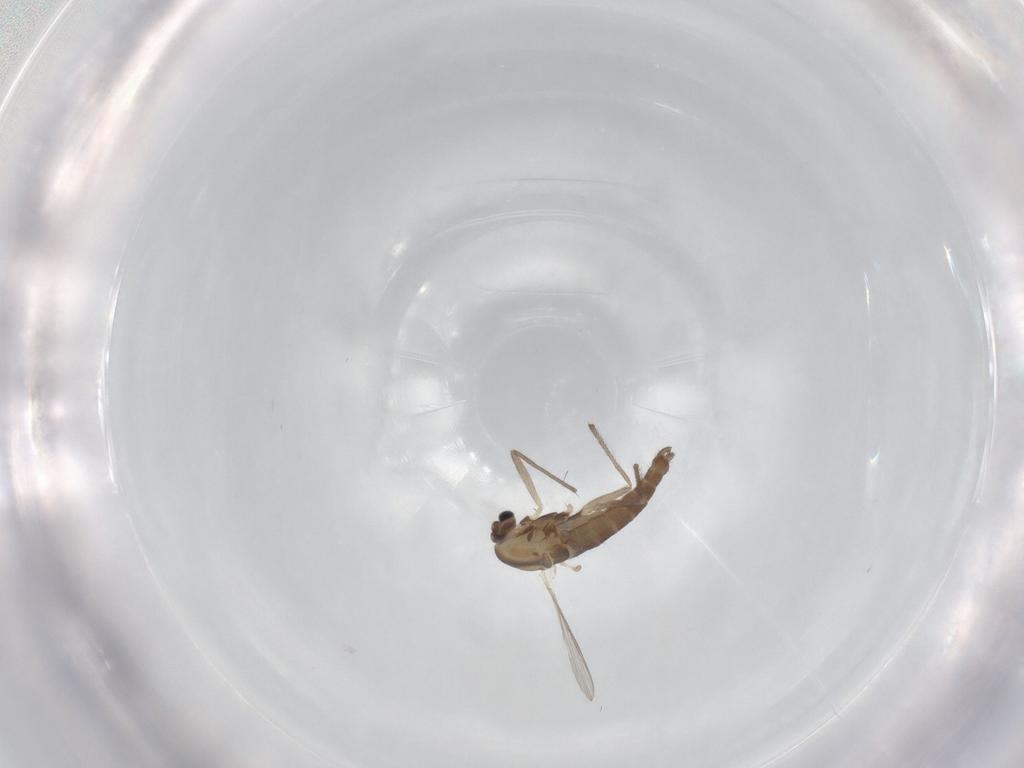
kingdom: Animalia
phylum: Arthropoda
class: Insecta
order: Diptera
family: Chironomidae
